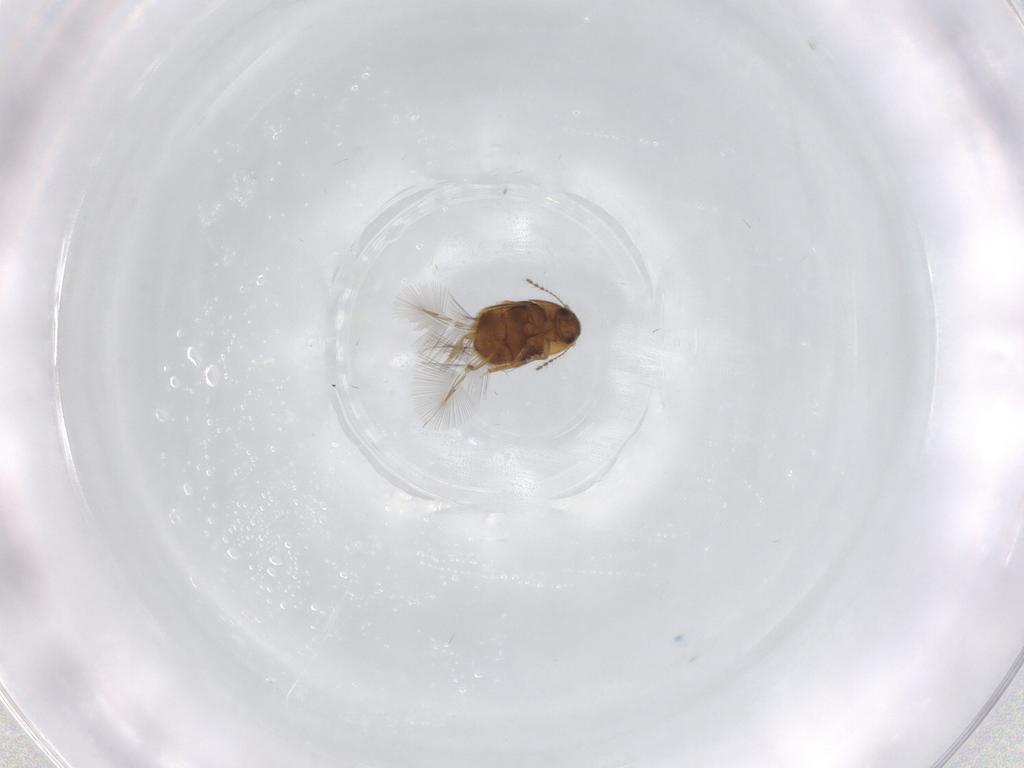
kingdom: Animalia
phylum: Arthropoda
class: Insecta
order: Coleoptera
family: Ptiliidae
